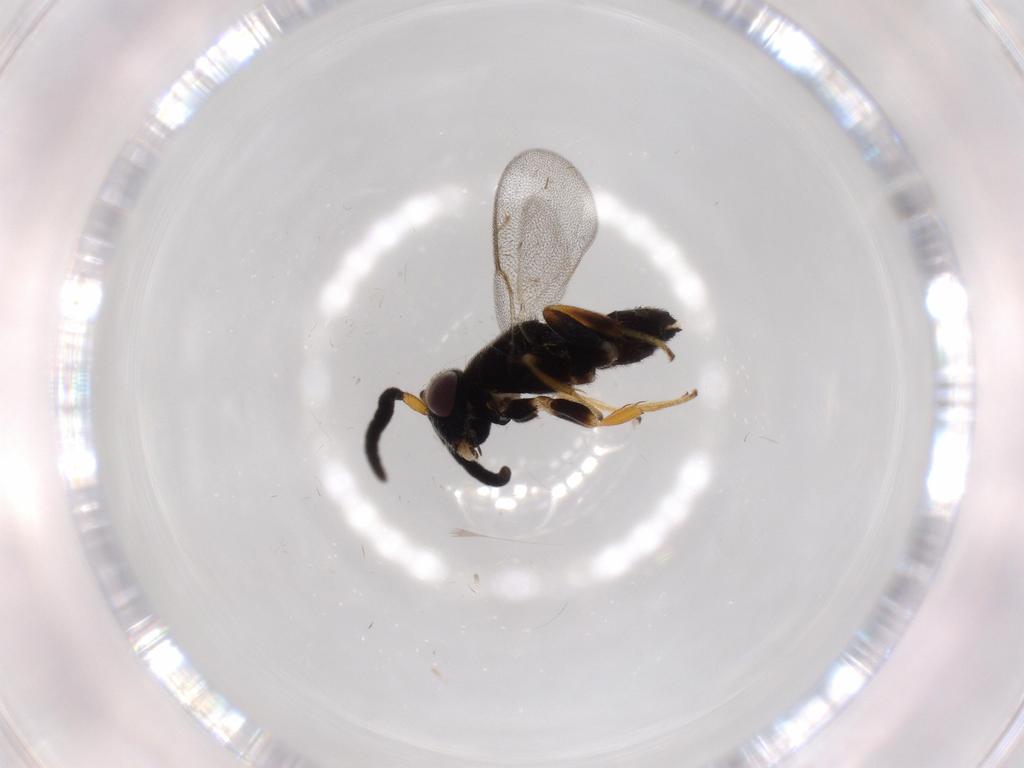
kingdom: Animalia
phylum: Arthropoda
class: Insecta
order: Hymenoptera
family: Eupelmidae
